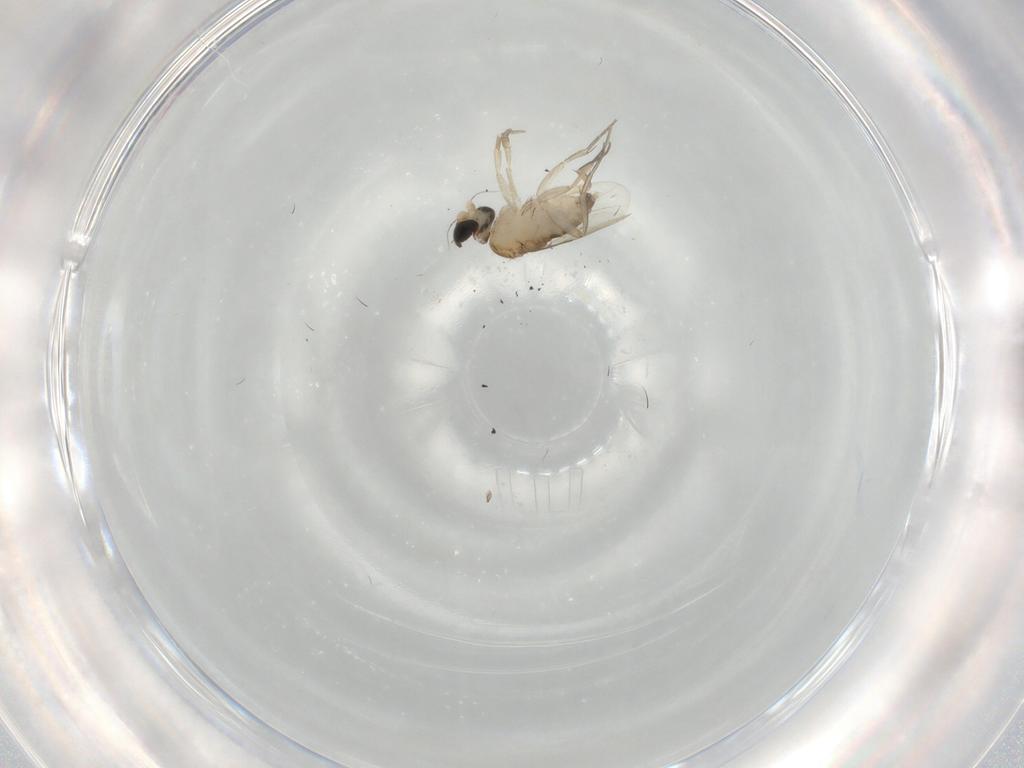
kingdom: Animalia
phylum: Arthropoda
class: Insecta
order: Diptera
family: Phoridae
